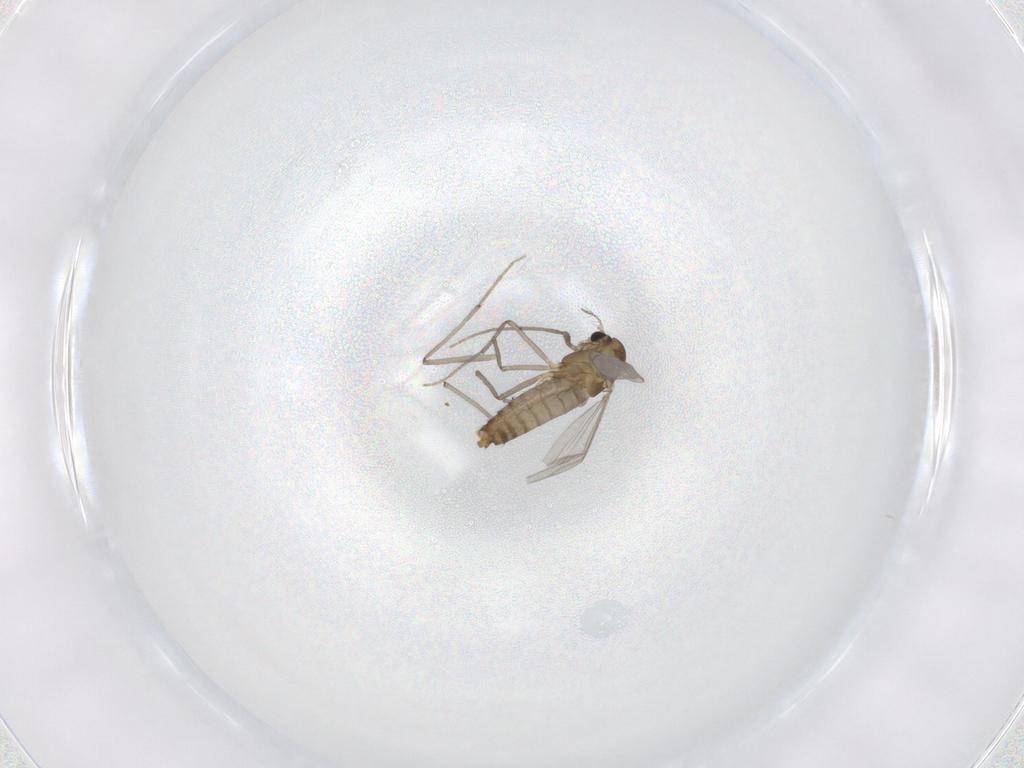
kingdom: Animalia
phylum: Arthropoda
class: Insecta
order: Diptera
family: Chironomidae
